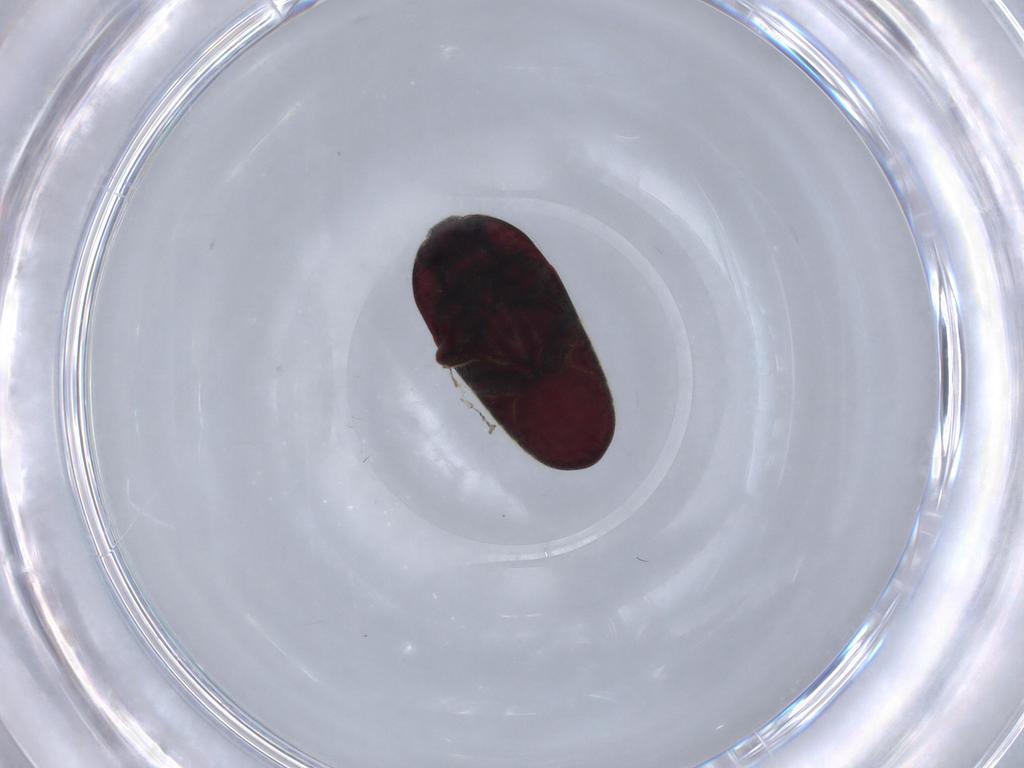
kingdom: Animalia
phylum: Arthropoda
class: Insecta
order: Coleoptera
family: Throscidae
